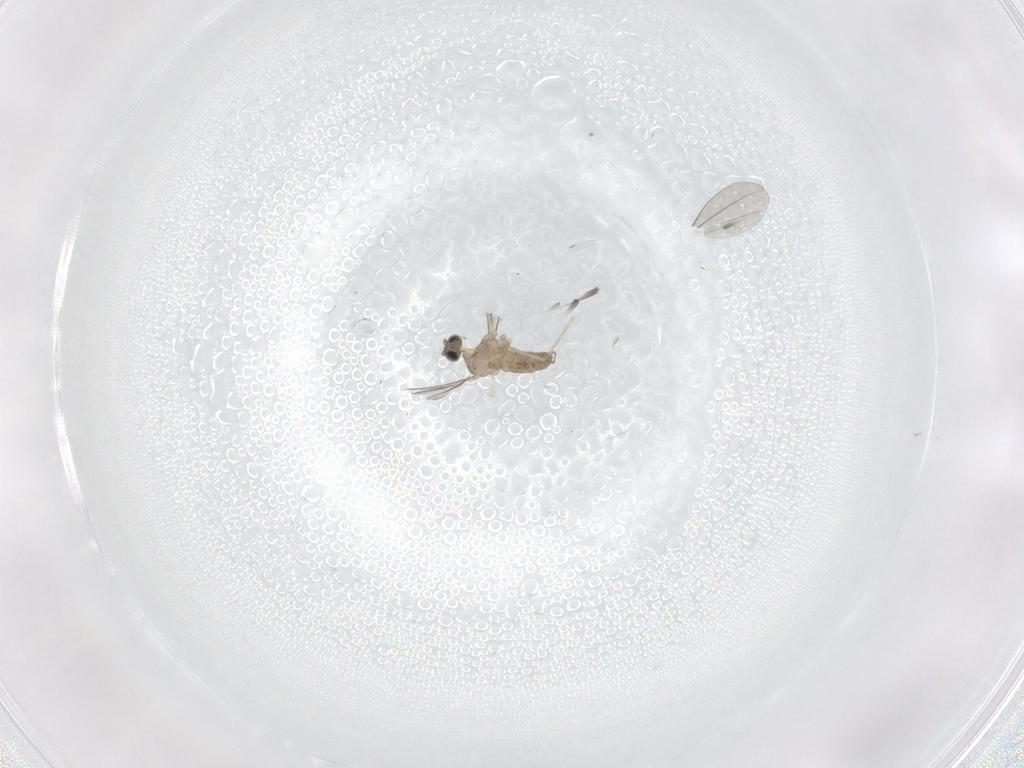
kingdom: Animalia
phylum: Arthropoda
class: Insecta
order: Diptera
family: Cecidomyiidae
